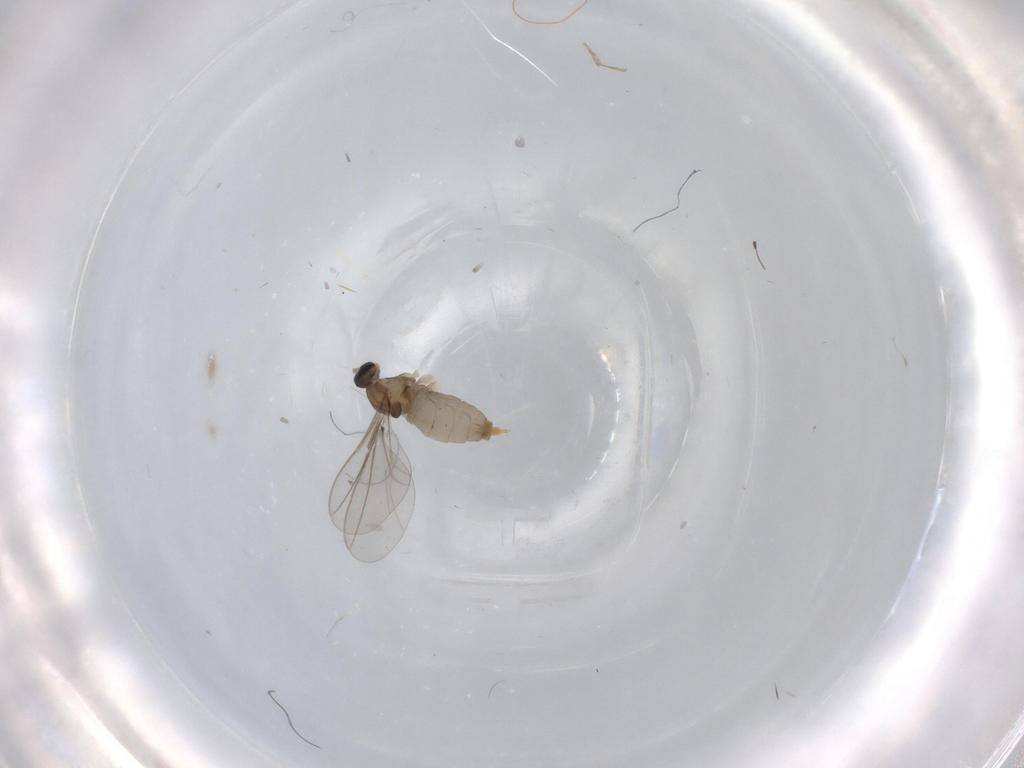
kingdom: Animalia
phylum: Arthropoda
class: Insecta
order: Diptera
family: Cecidomyiidae
